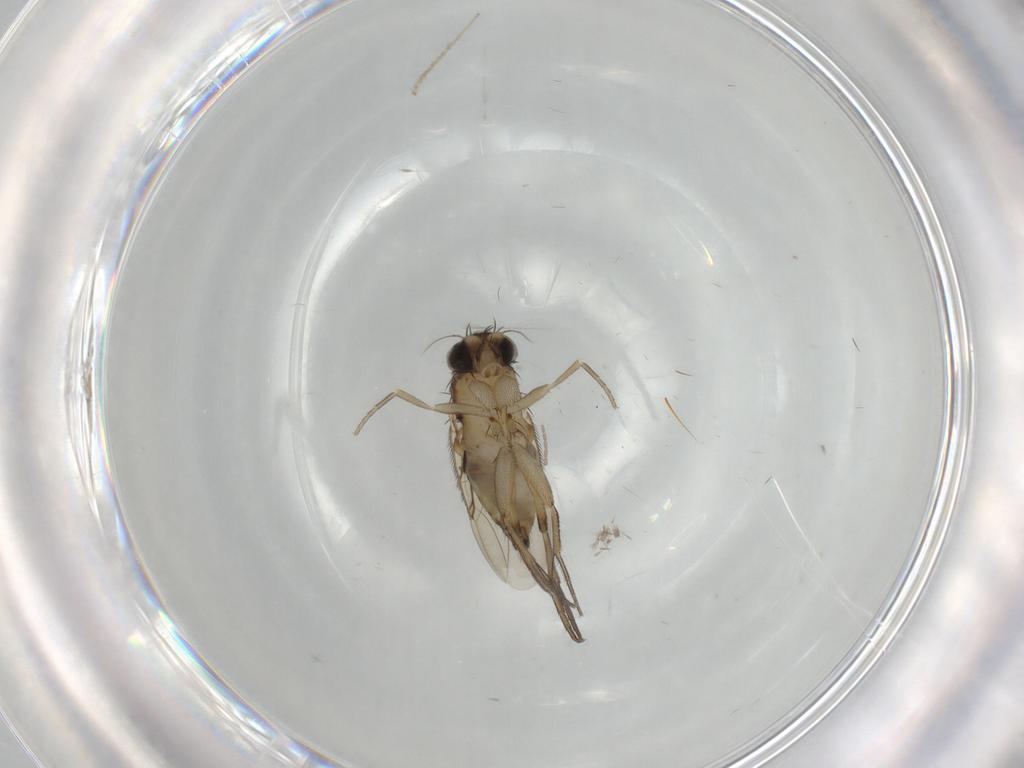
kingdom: Animalia
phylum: Arthropoda
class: Insecta
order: Diptera
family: Phoridae
